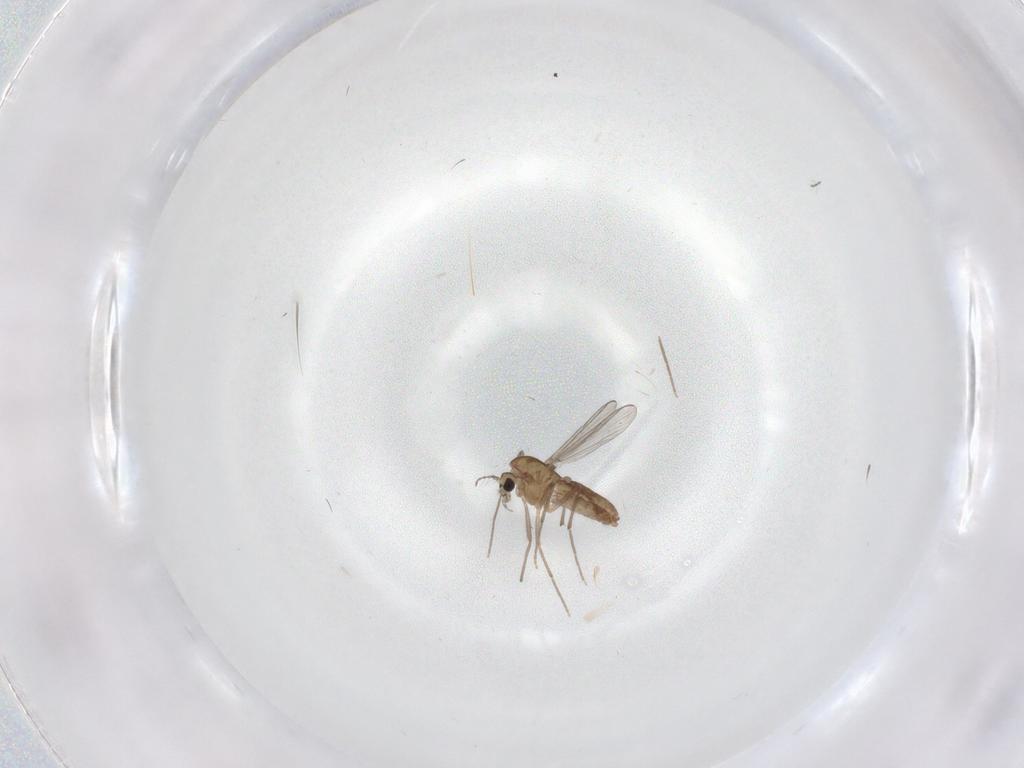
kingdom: Animalia
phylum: Arthropoda
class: Insecta
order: Diptera
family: Chironomidae
